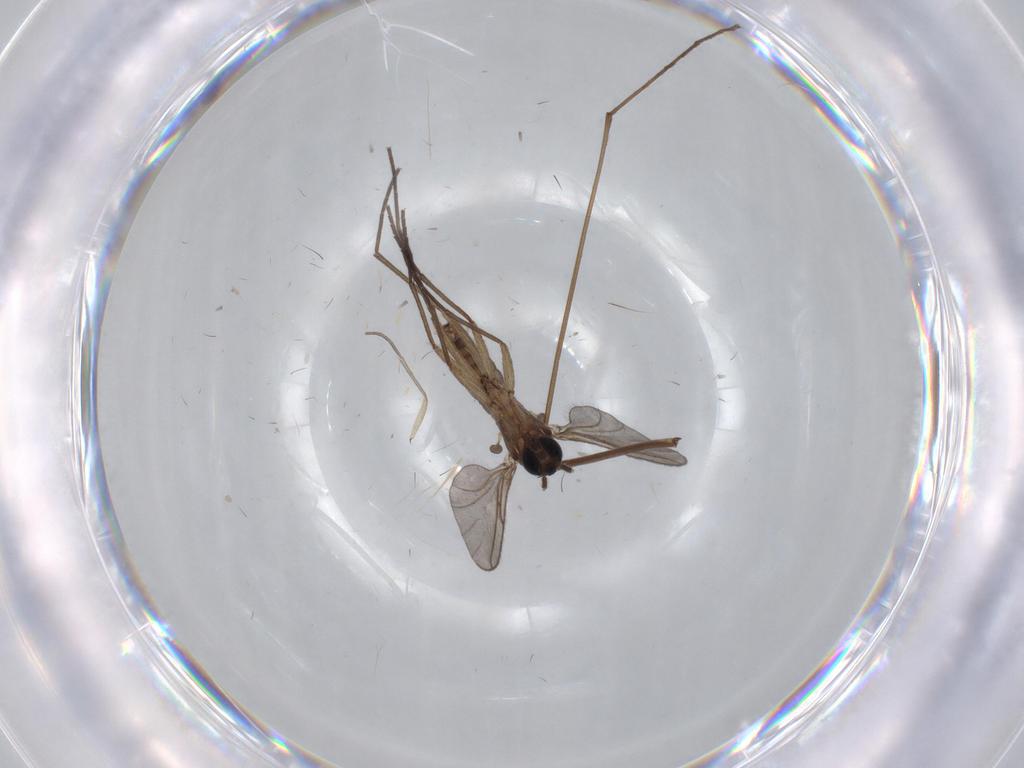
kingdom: Animalia
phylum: Arthropoda
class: Insecta
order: Diptera
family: Sciaridae
